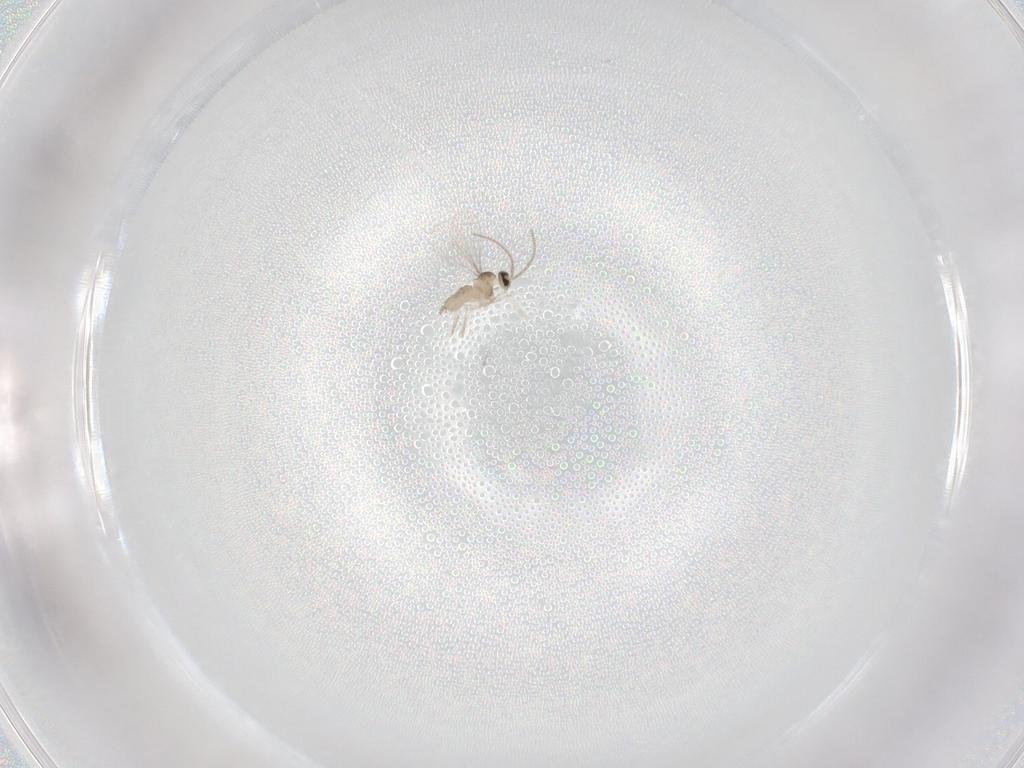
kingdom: Animalia
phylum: Arthropoda
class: Insecta
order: Diptera
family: Cecidomyiidae
